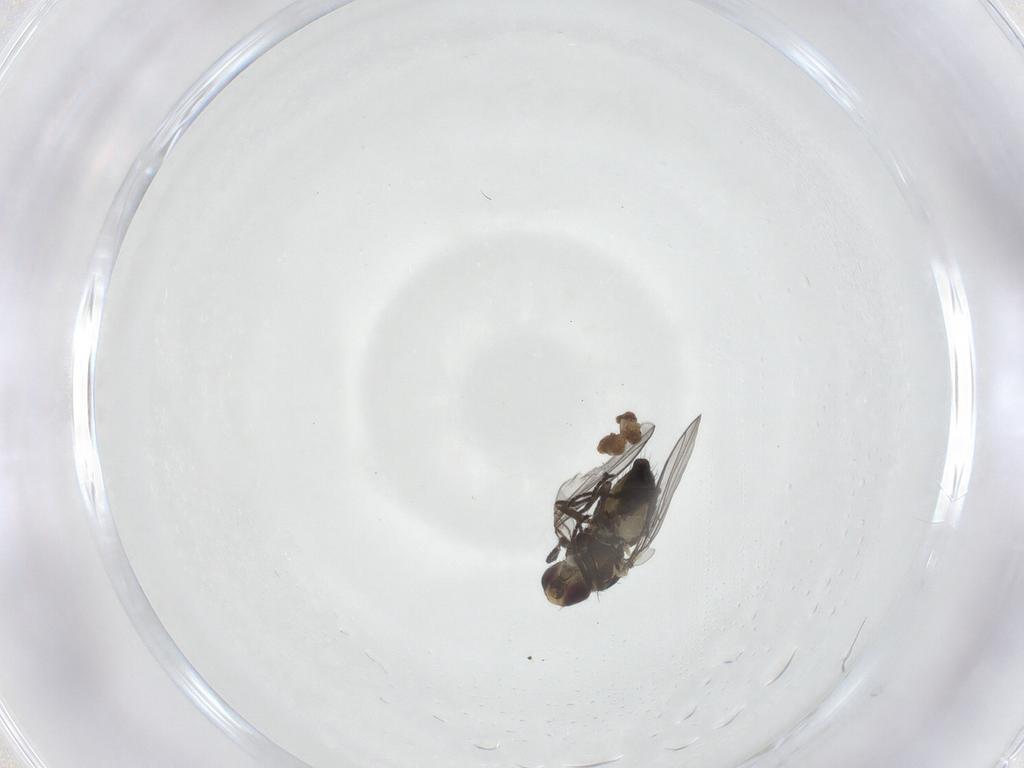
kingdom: Animalia
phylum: Arthropoda
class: Insecta
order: Diptera
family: Agromyzidae
